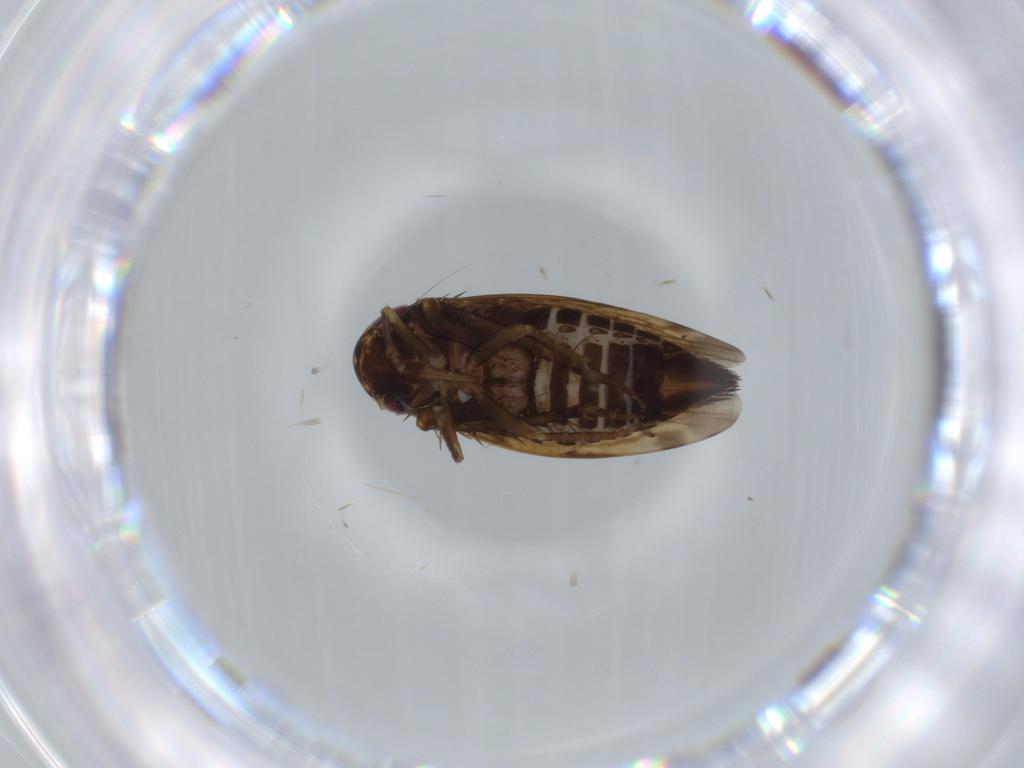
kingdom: Animalia
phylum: Arthropoda
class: Insecta
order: Hemiptera
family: Cicadellidae
